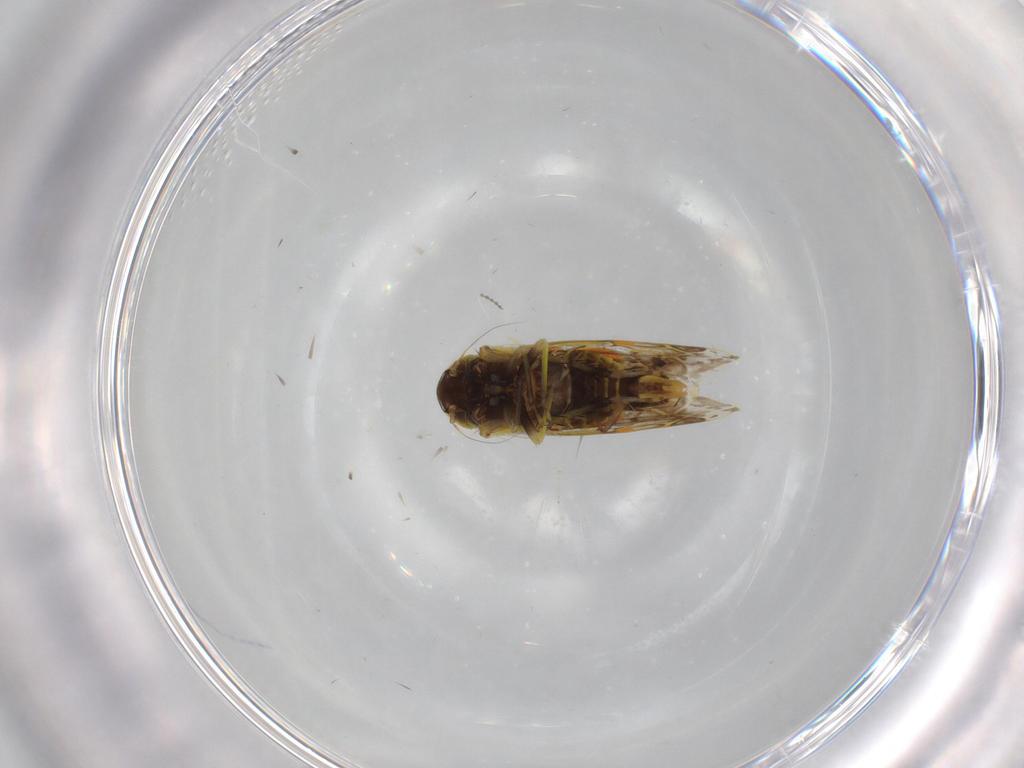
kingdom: Animalia
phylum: Arthropoda
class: Insecta
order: Hemiptera
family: Cicadellidae
